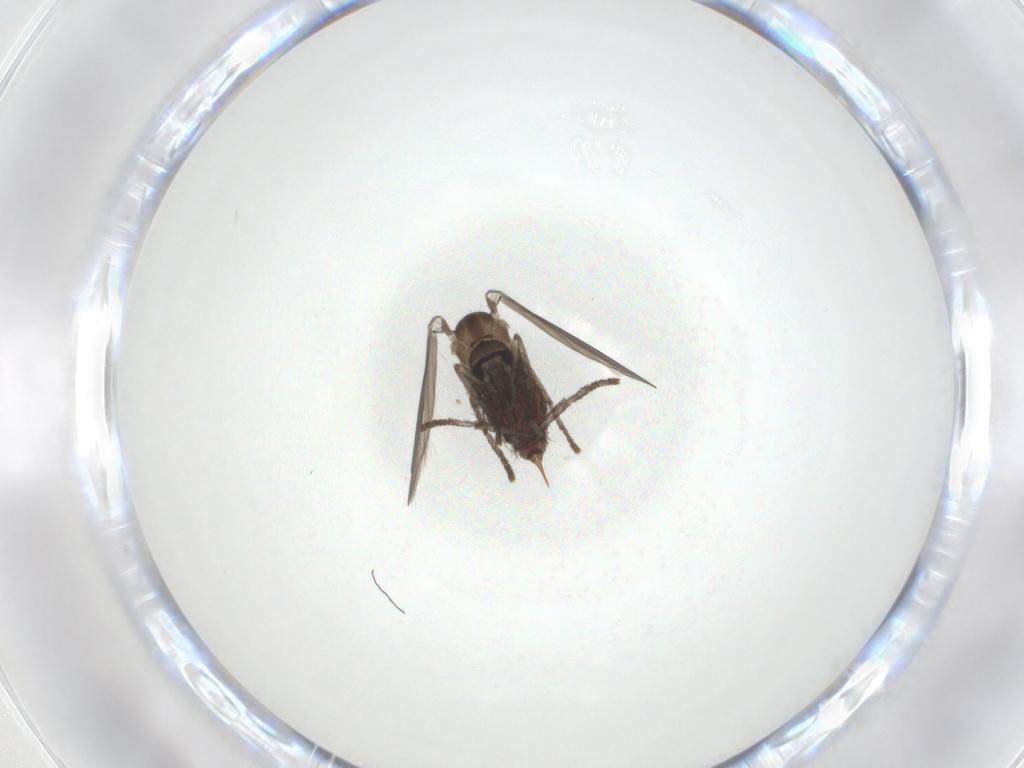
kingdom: Animalia
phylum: Arthropoda
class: Insecta
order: Diptera
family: Psychodidae
